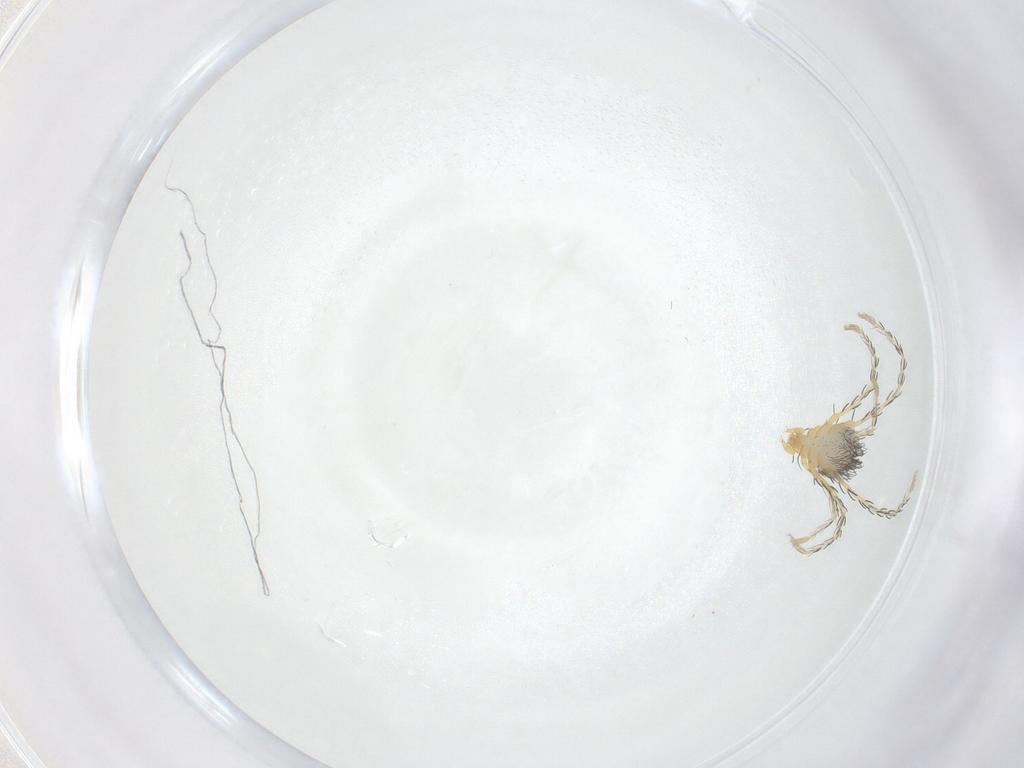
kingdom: Animalia
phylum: Arthropoda
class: Arachnida
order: Trombidiformes
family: Erythraeidae
